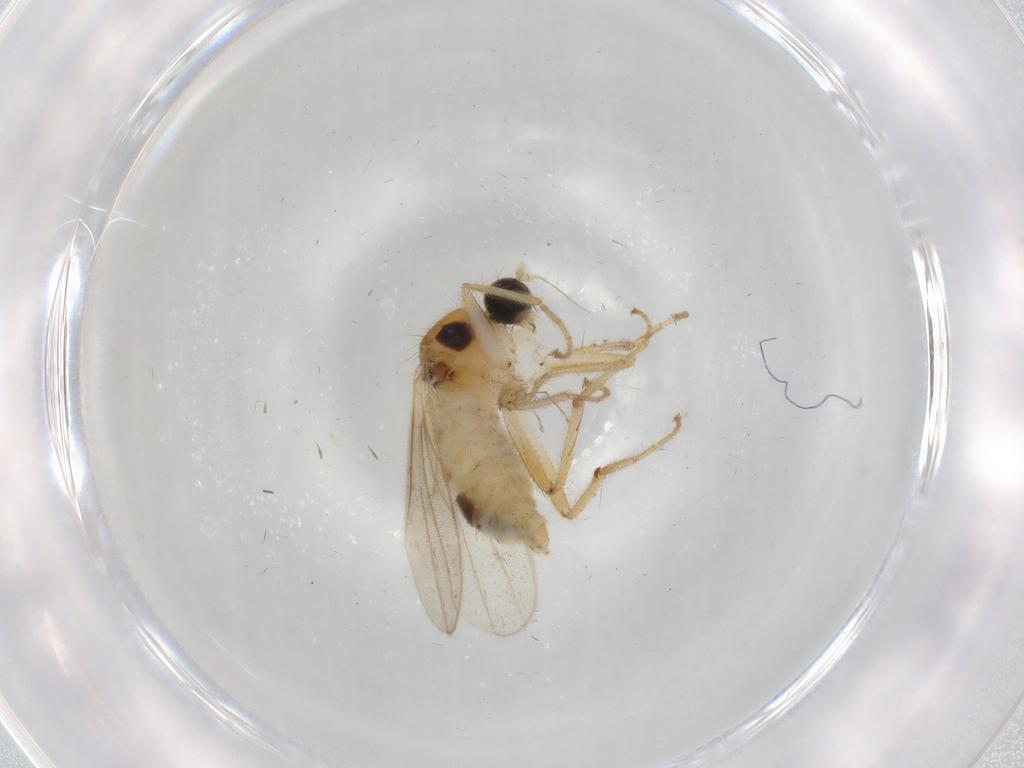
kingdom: Animalia
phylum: Arthropoda
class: Insecta
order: Diptera
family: Hybotidae
